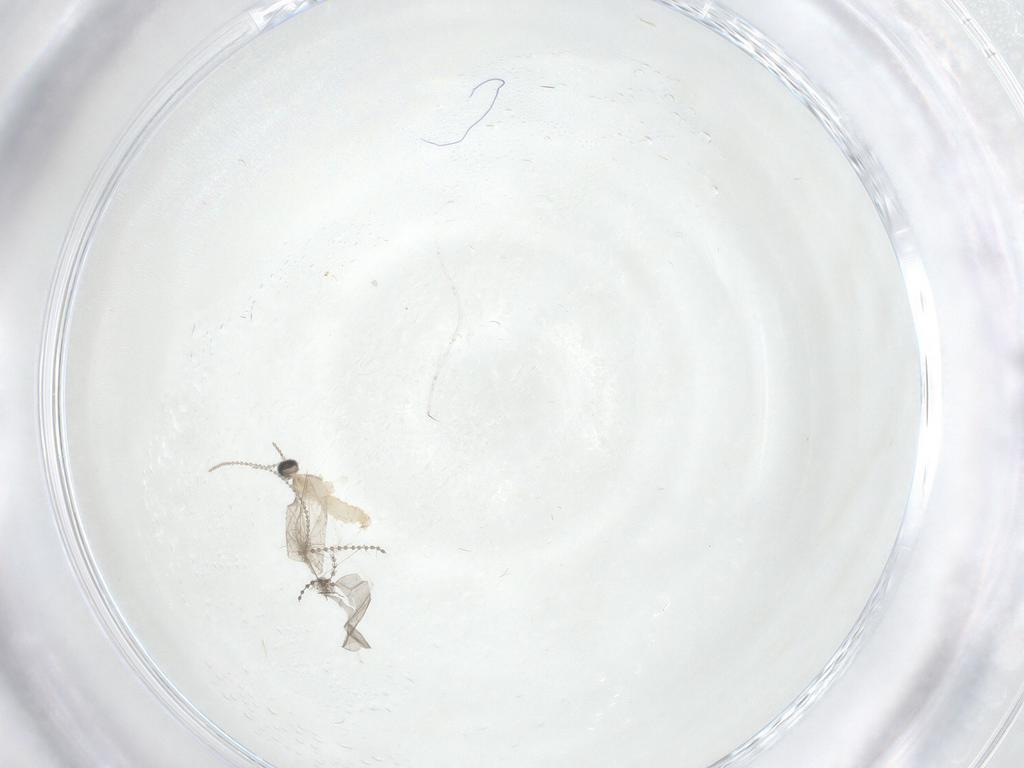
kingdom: Animalia
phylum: Arthropoda
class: Insecta
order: Diptera
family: Cecidomyiidae
